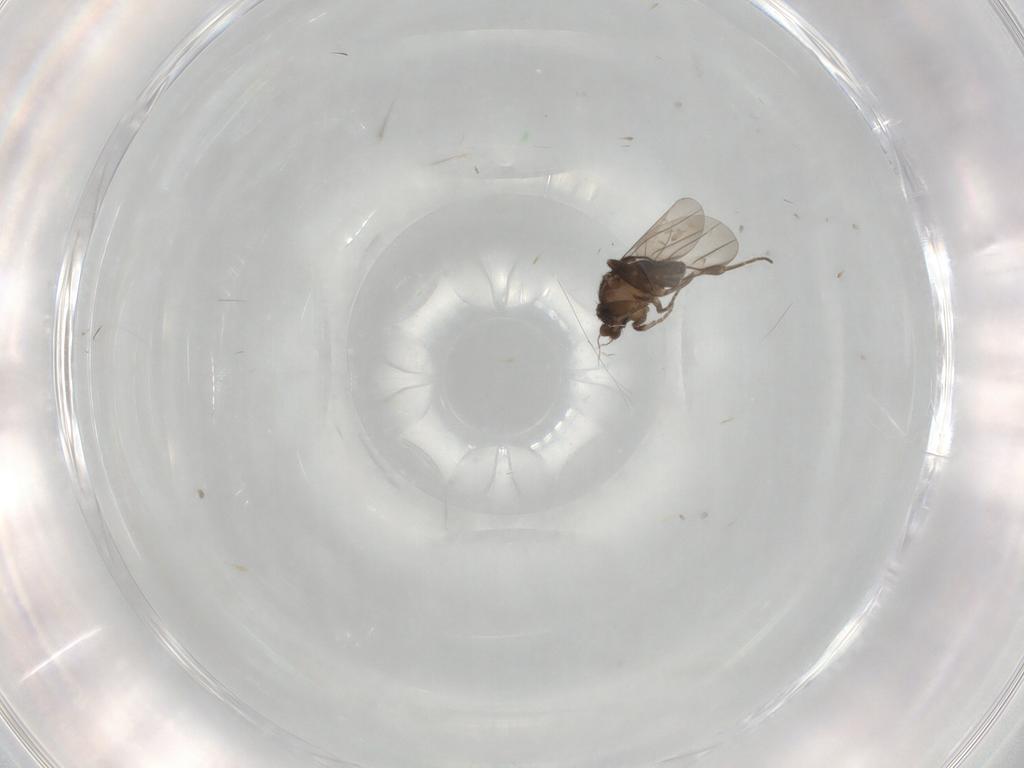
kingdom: Animalia
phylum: Arthropoda
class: Insecta
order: Diptera
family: Phoridae
